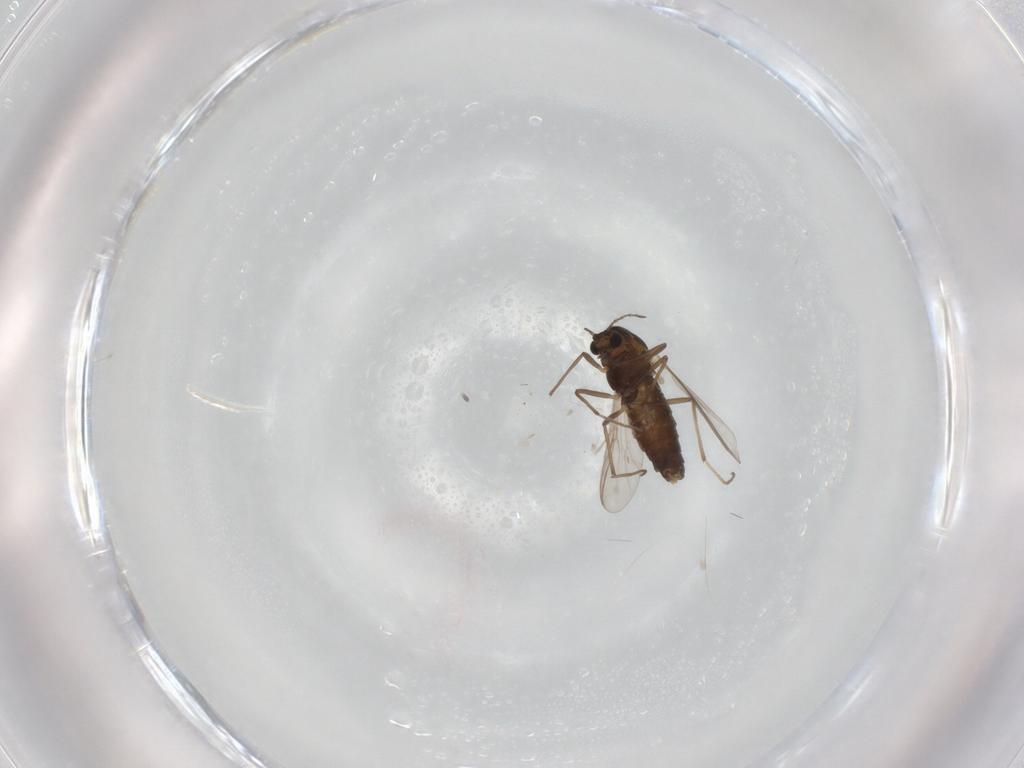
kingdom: Animalia
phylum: Arthropoda
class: Insecta
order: Diptera
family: Chironomidae
